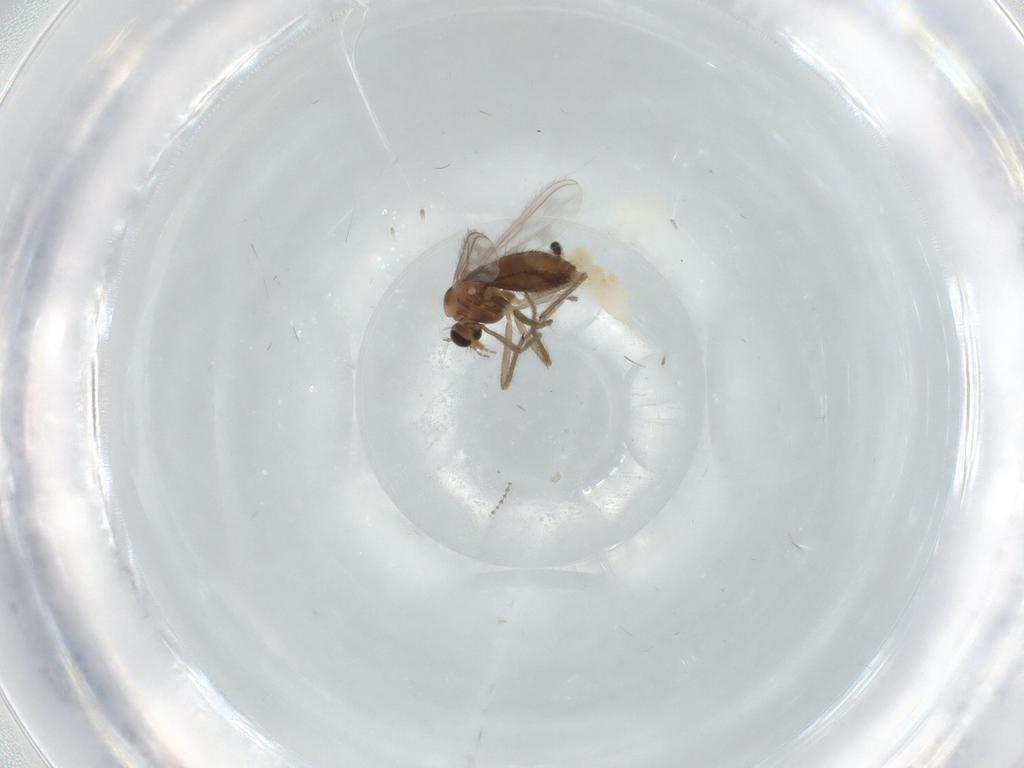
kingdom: Animalia
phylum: Arthropoda
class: Insecta
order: Diptera
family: Chironomidae
